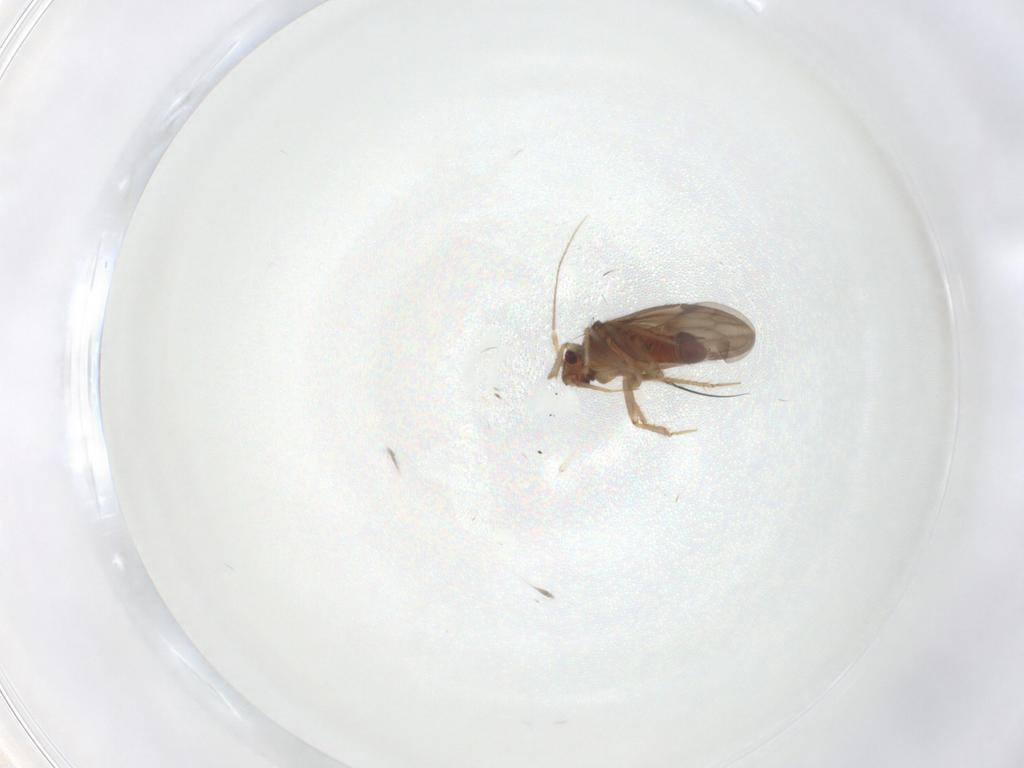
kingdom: Animalia
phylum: Arthropoda
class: Insecta
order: Hemiptera
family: Ceratocombidae
